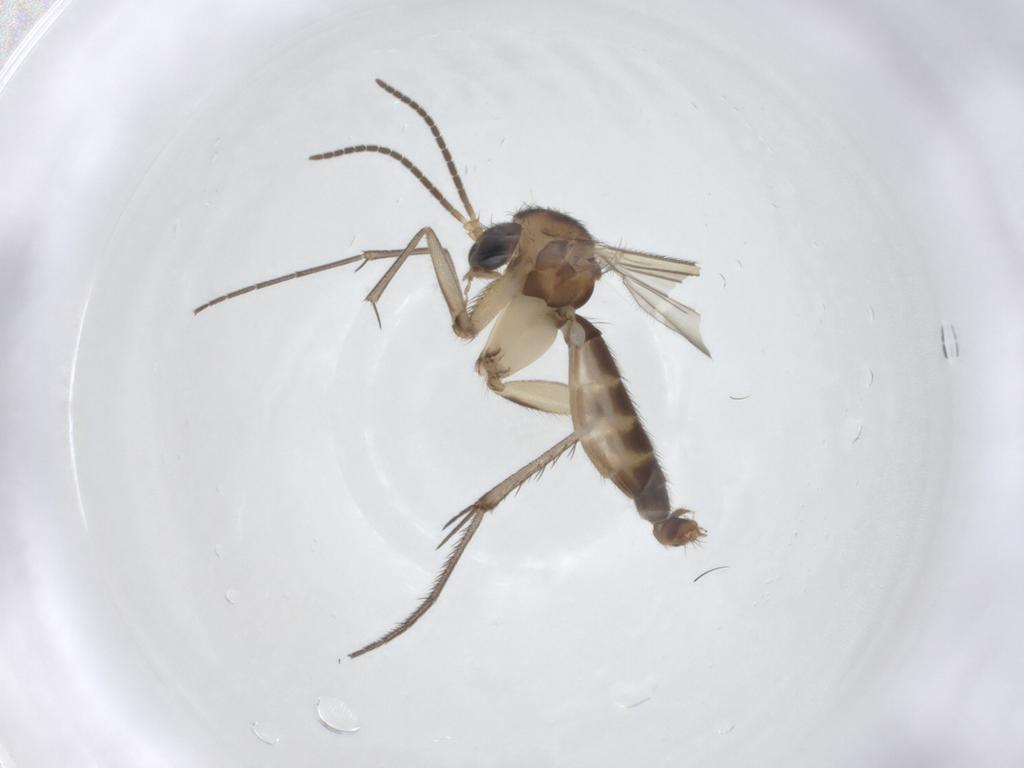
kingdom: Animalia
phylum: Arthropoda
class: Insecta
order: Diptera
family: Sciaridae
